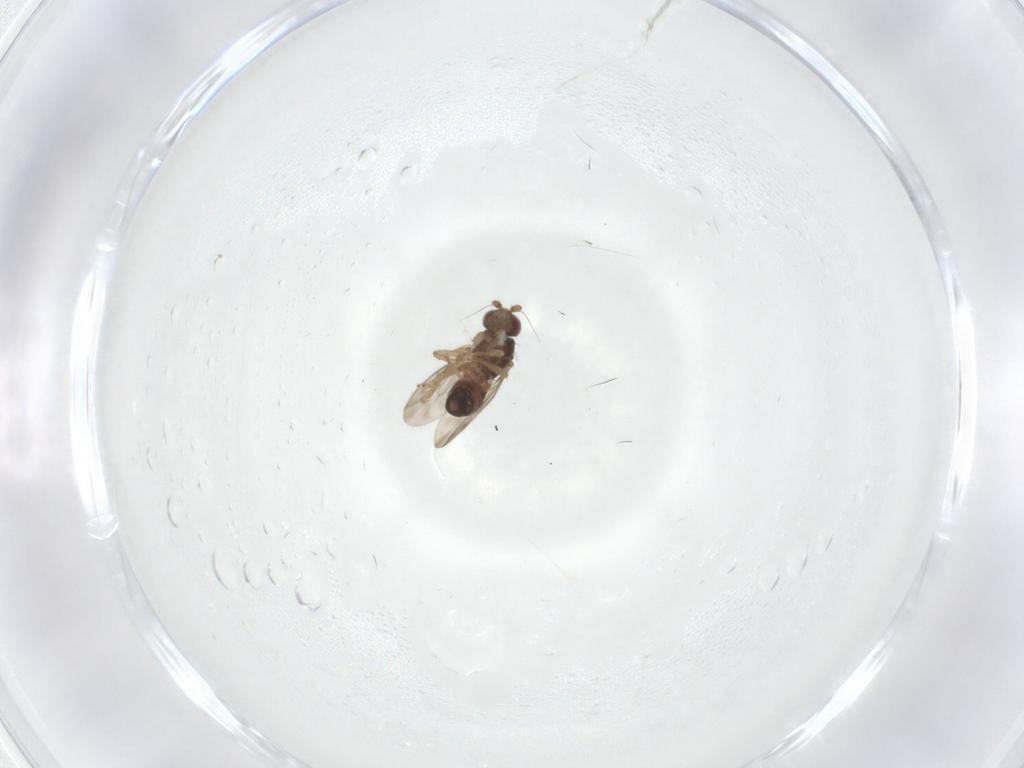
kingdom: Animalia
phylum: Arthropoda
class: Insecta
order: Diptera
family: Sphaeroceridae
